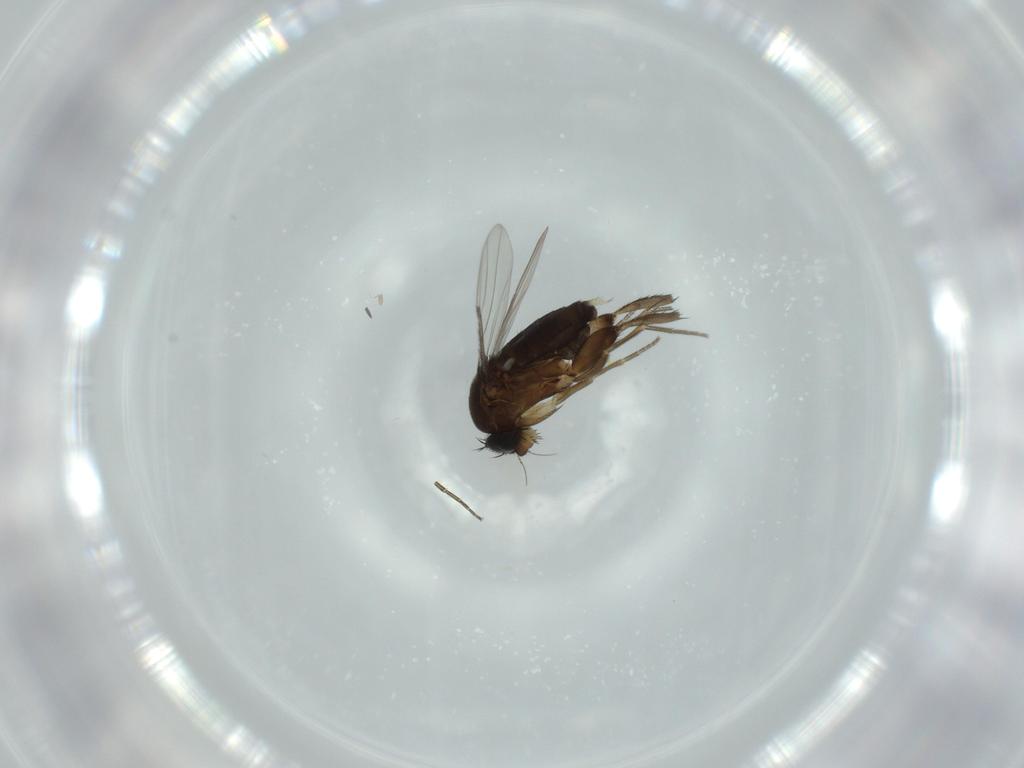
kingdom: Animalia
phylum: Arthropoda
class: Insecta
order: Diptera
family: Phoridae
